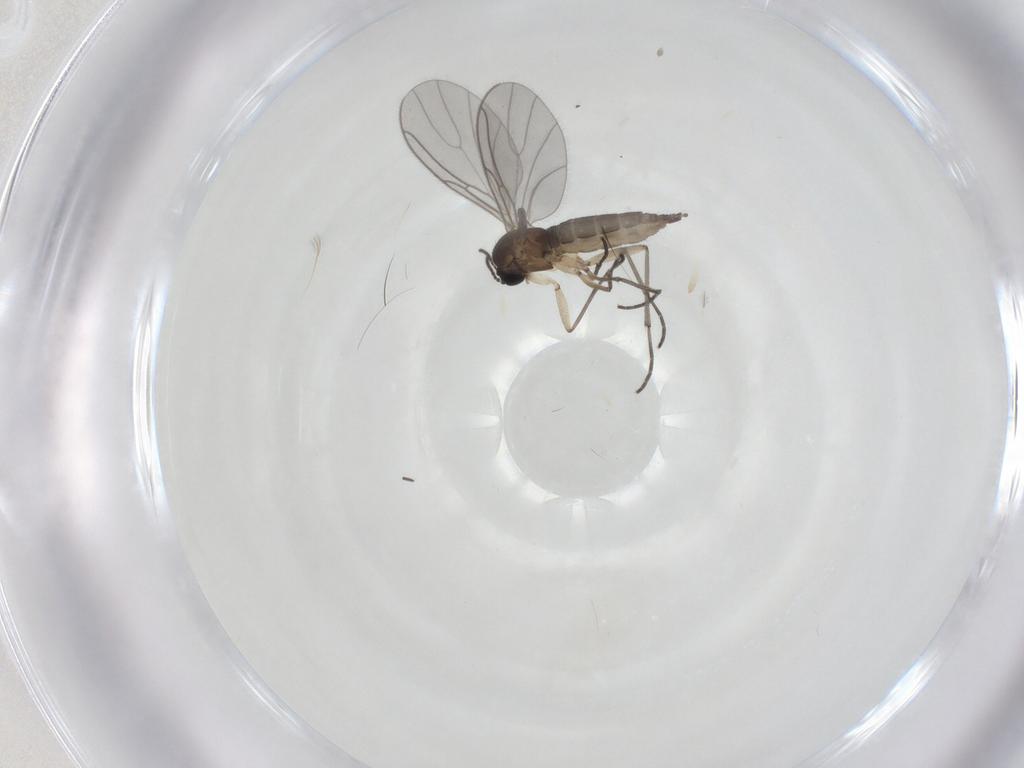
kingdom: Animalia
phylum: Arthropoda
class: Insecta
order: Diptera
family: Sciaridae
